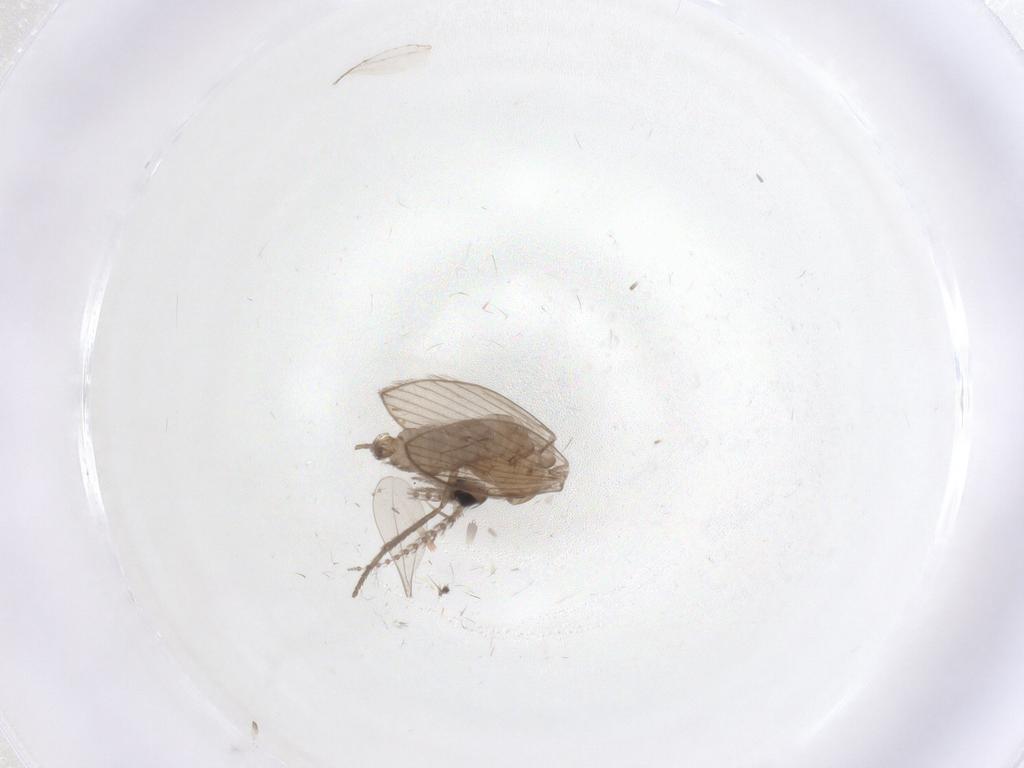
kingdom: Animalia
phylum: Arthropoda
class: Insecta
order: Diptera
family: Psychodidae
